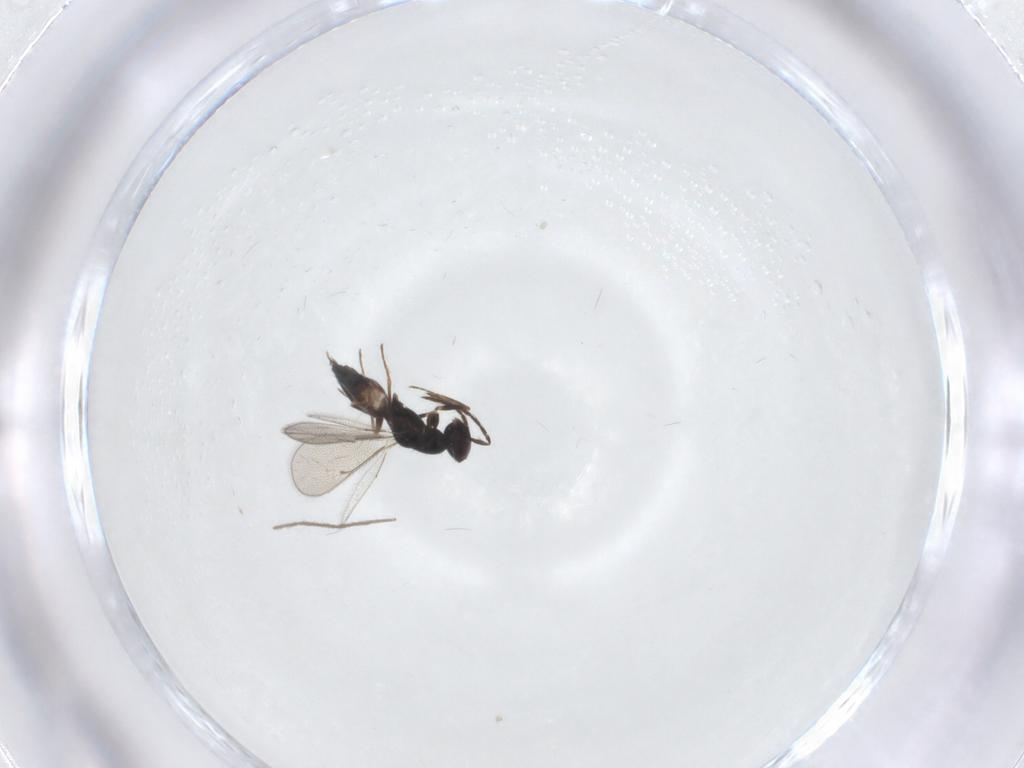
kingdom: Animalia
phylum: Arthropoda
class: Insecta
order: Hymenoptera
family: Eulophidae
